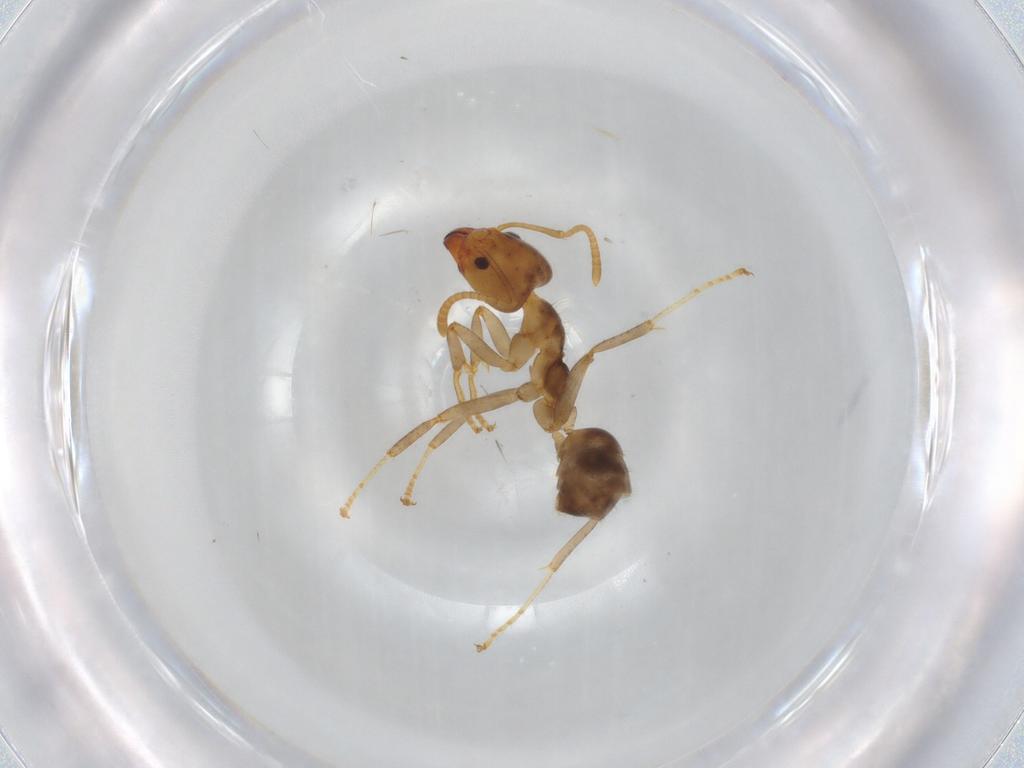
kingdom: Animalia
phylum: Arthropoda
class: Insecta
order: Hymenoptera
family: Formicidae
